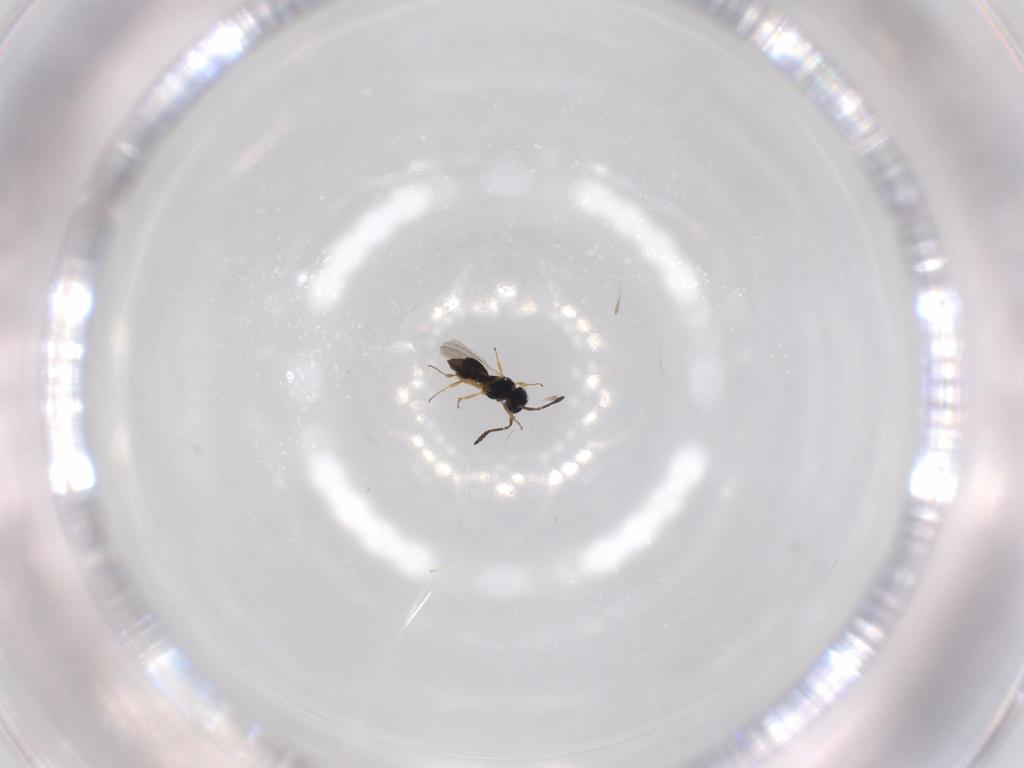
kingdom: Animalia
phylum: Arthropoda
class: Insecta
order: Hymenoptera
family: Scelionidae
